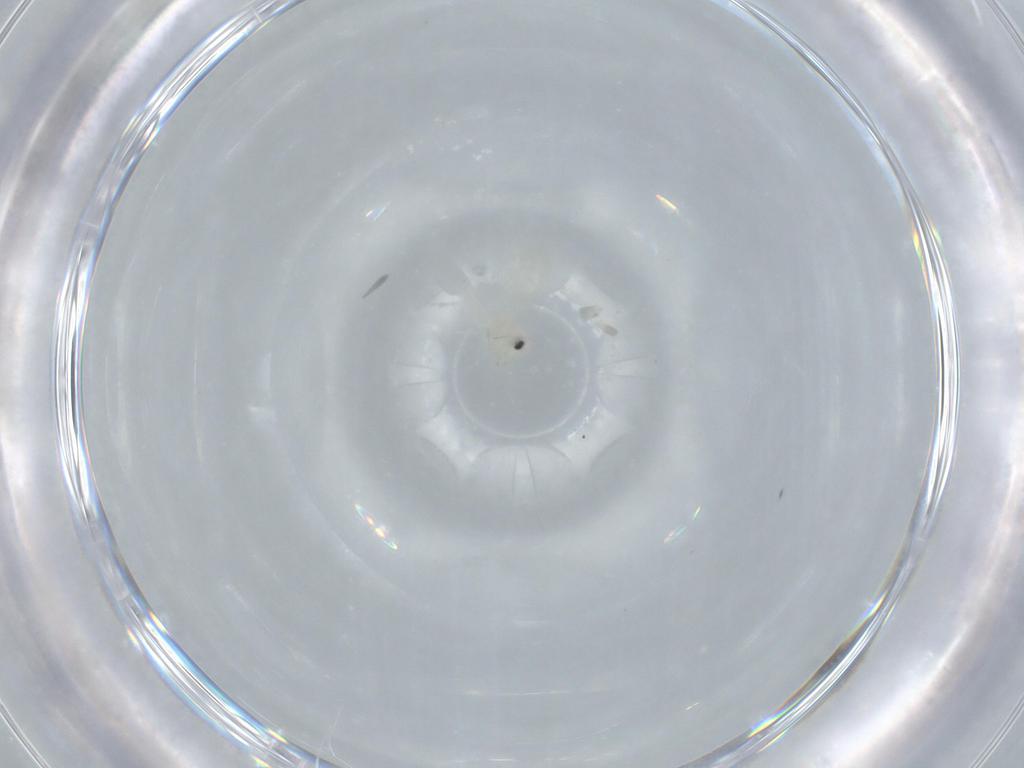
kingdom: Animalia
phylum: Arthropoda
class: Insecta
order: Hemiptera
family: Aleyrodidae
